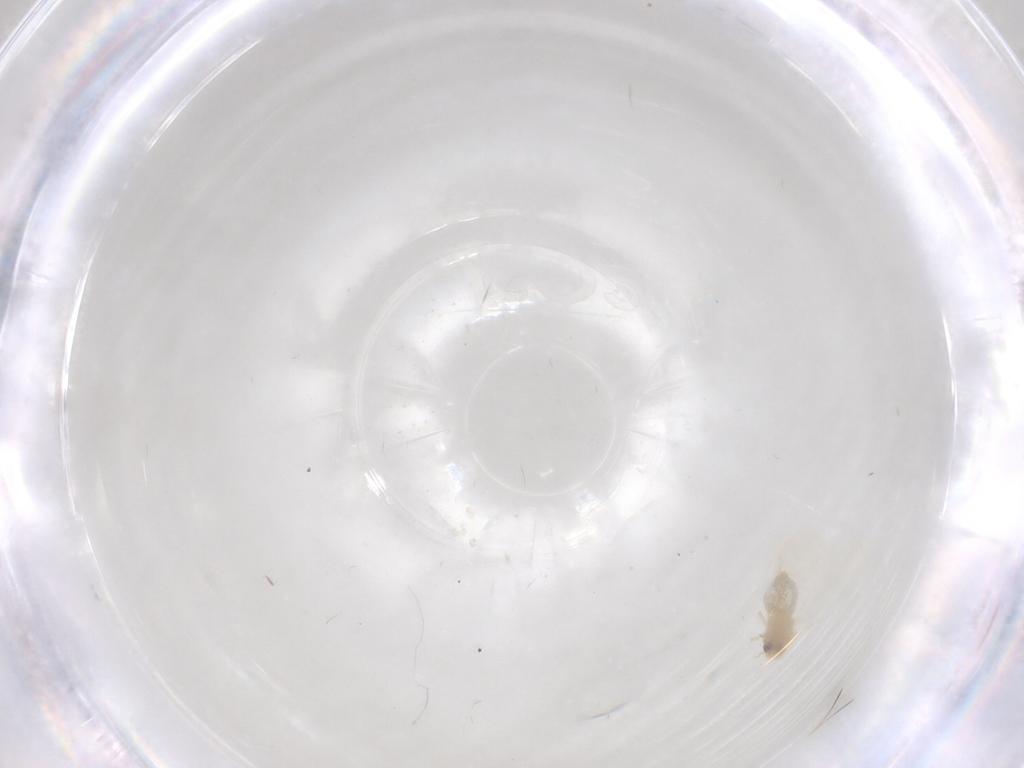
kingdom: Animalia
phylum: Arthropoda
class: Insecta
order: Hemiptera
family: Aleyrodidae
